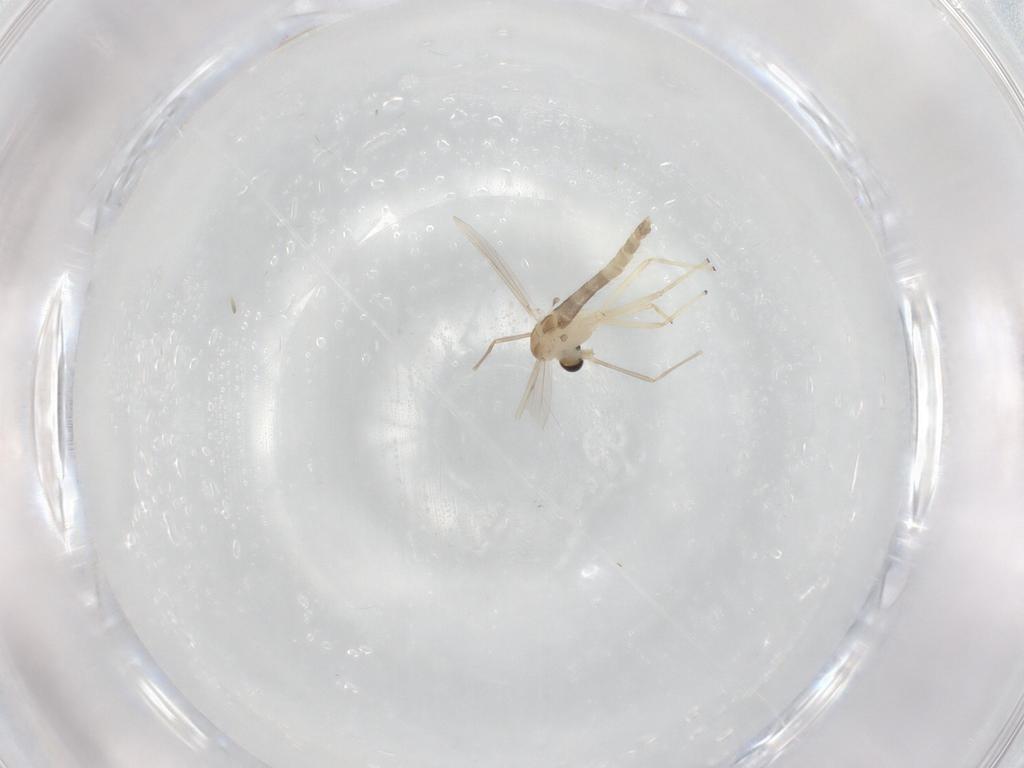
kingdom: Animalia
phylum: Arthropoda
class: Insecta
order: Diptera
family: Chironomidae
